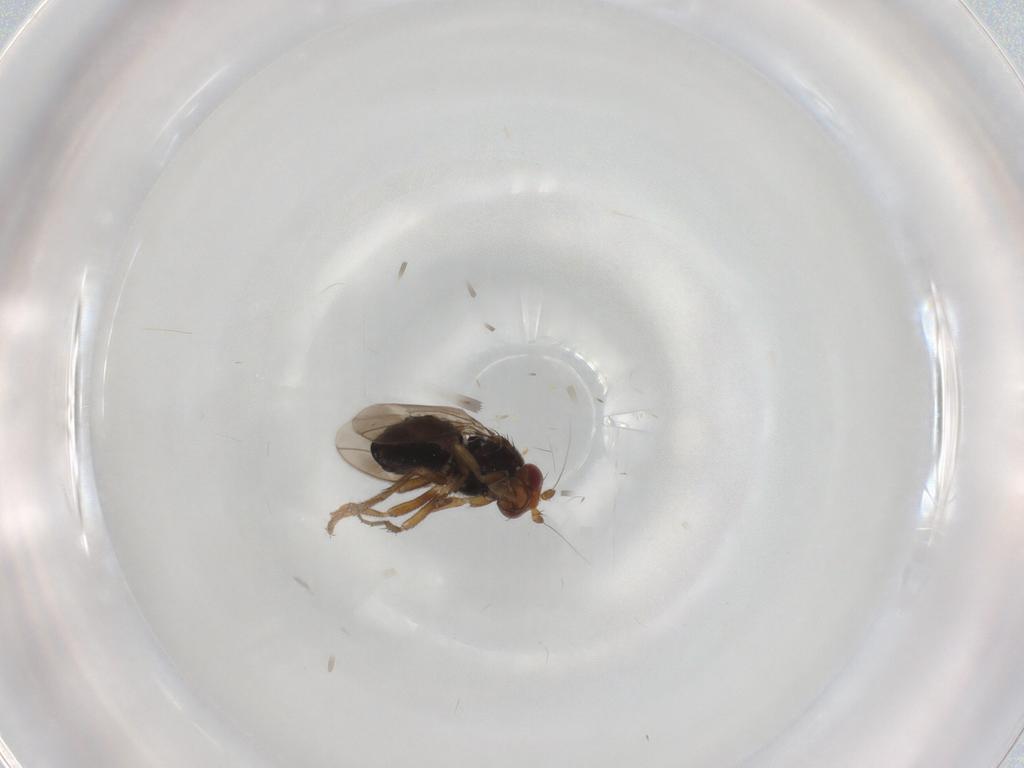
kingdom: Animalia
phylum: Arthropoda
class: Insecta
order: Diptera
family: Sphaeroceridae
